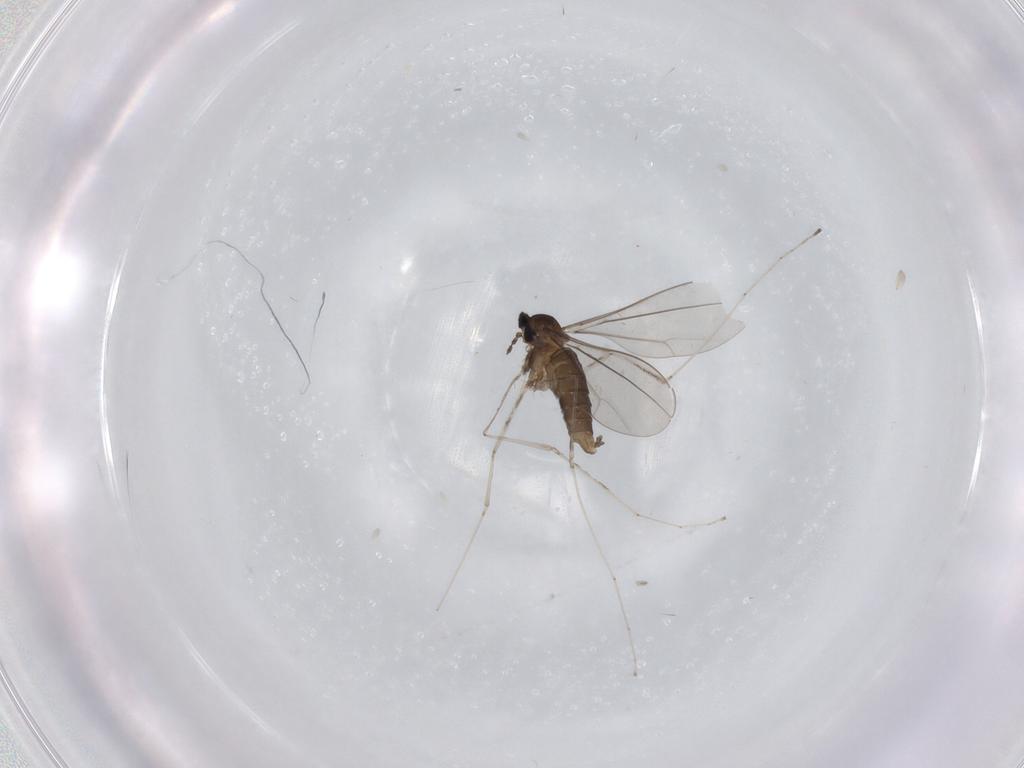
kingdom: Animalia
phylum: Arthropoda
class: Insecta
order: Diptera
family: Cecidomyiidae
